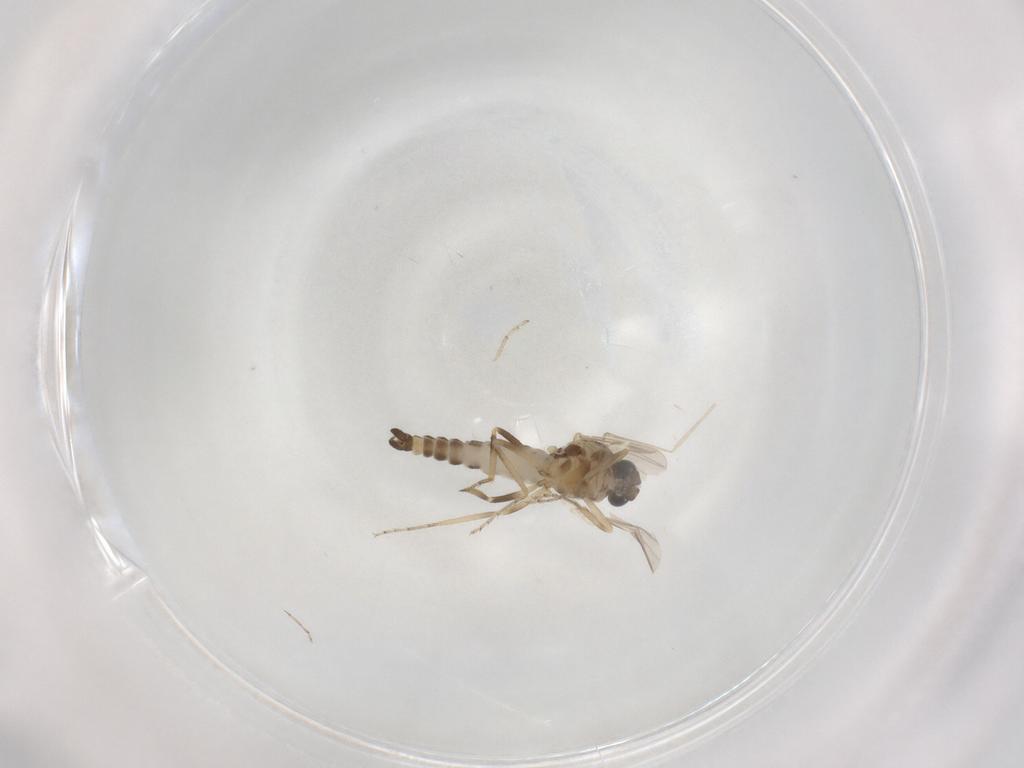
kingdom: Animalia
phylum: Arthropoda
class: Insecta
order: Diptera
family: Ceratopogonidae
